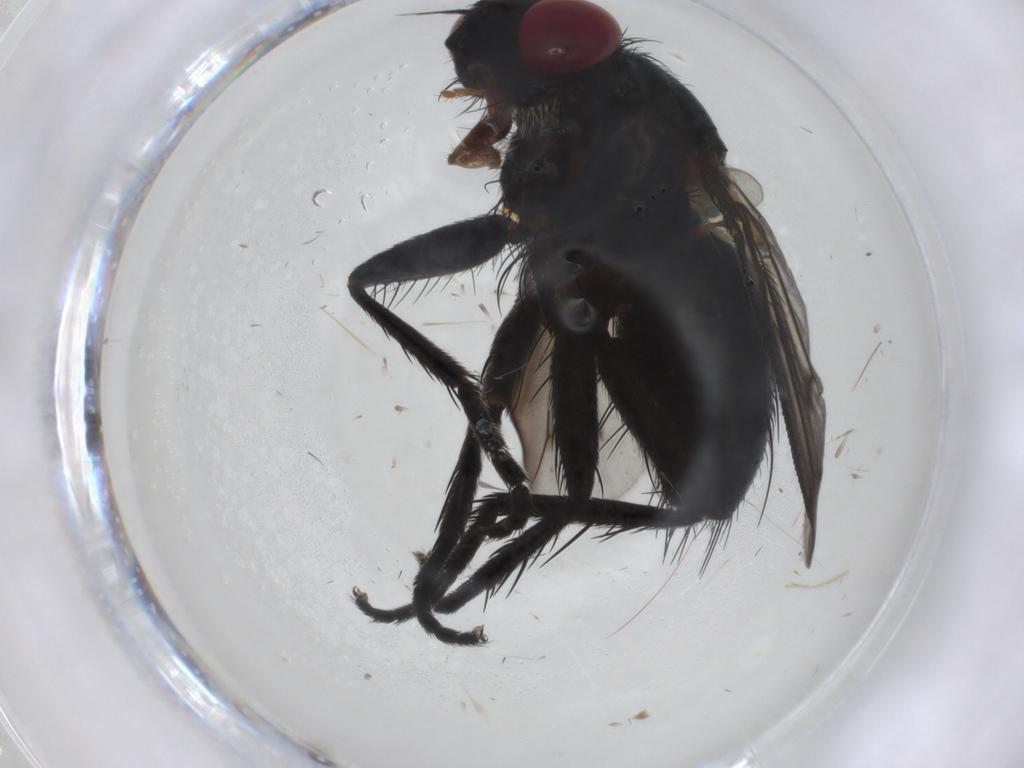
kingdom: Animalia
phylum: Arthropoda
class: Insecta
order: Diptera
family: Tachinidae
